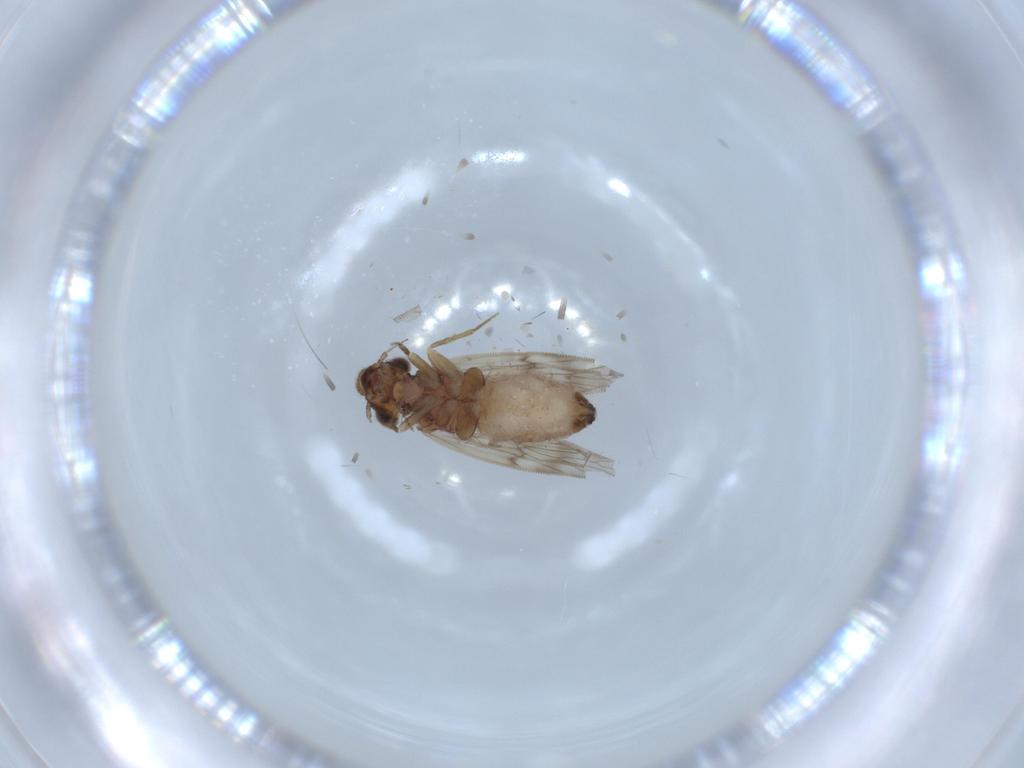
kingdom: Animalia
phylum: Arthropoda
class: Insecta
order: Psocodea
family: Lepidopsocidae
